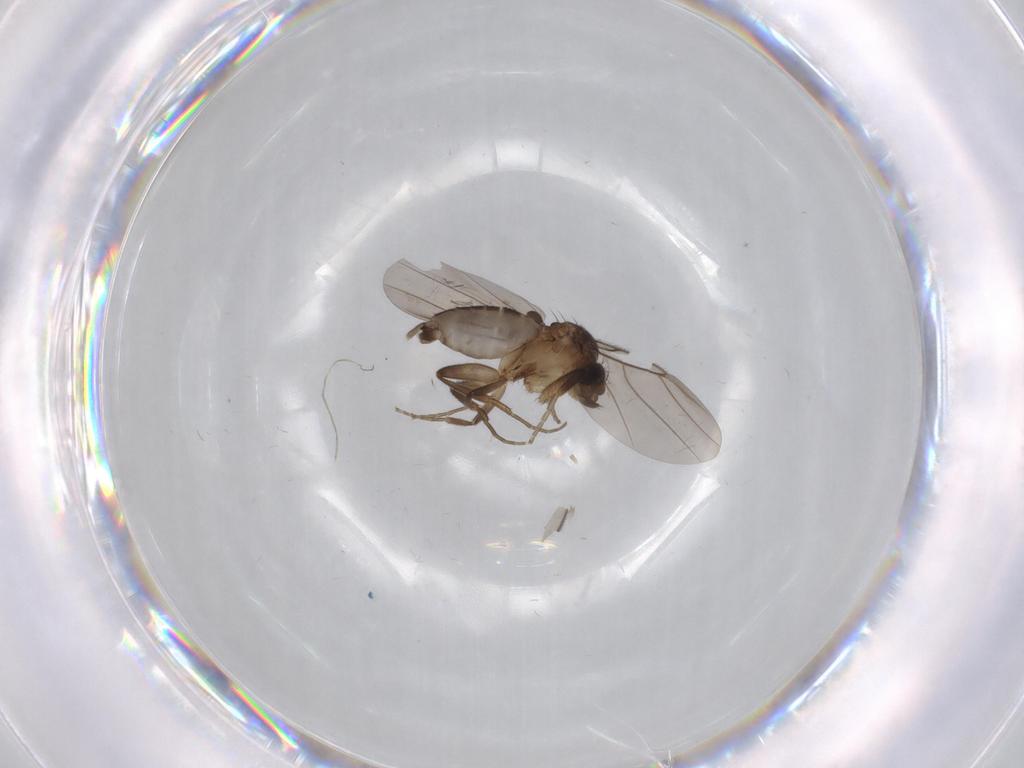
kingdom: Animalia
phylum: Arthropoda
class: Insecta
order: Diptera
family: Phoridae
